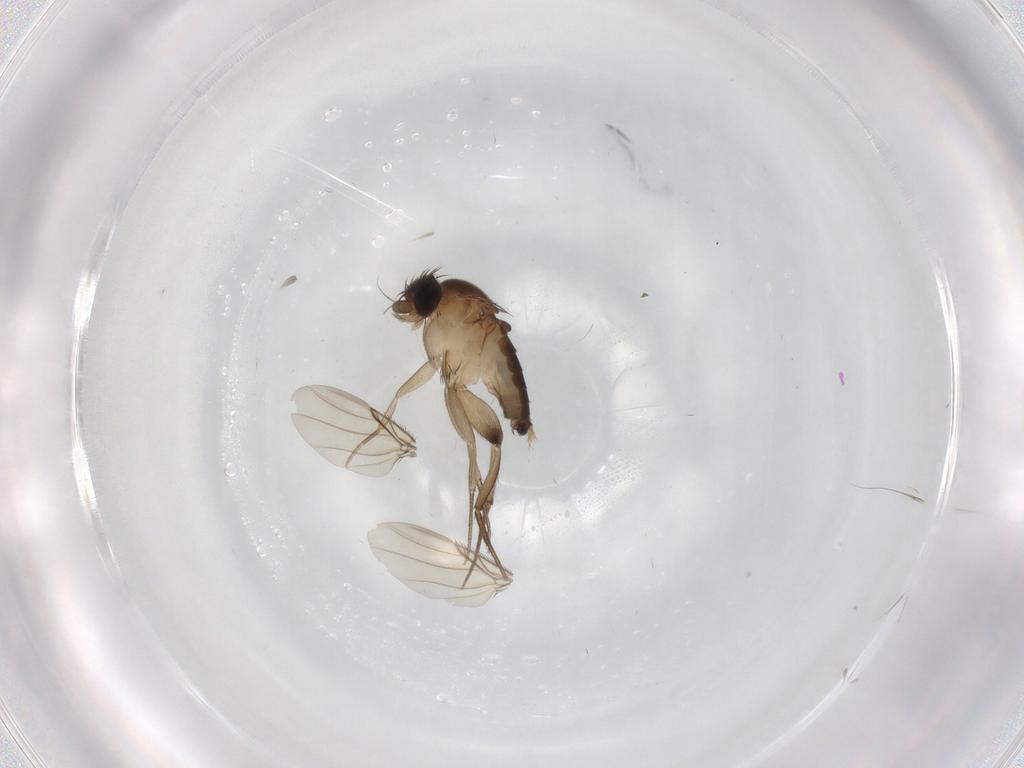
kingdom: Animalia
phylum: Arthropoda
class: Insecta
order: Diptera
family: Phoridae
